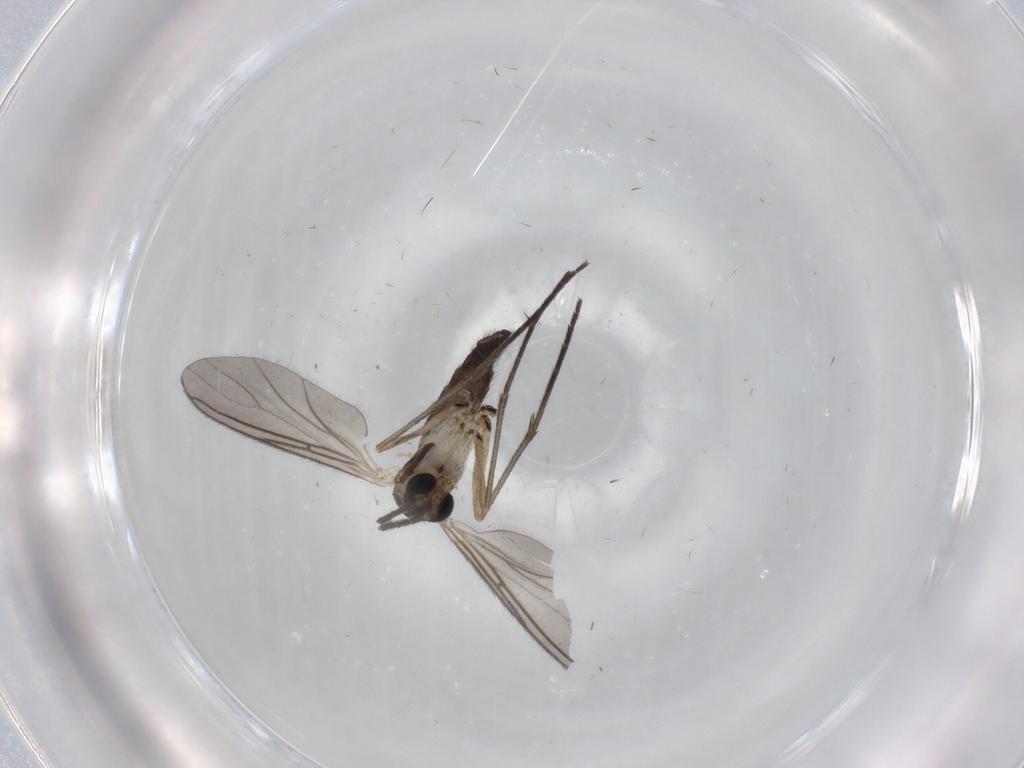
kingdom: Animalia
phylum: Arthropoda
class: Insecta
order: Diptera
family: Sciaridae
